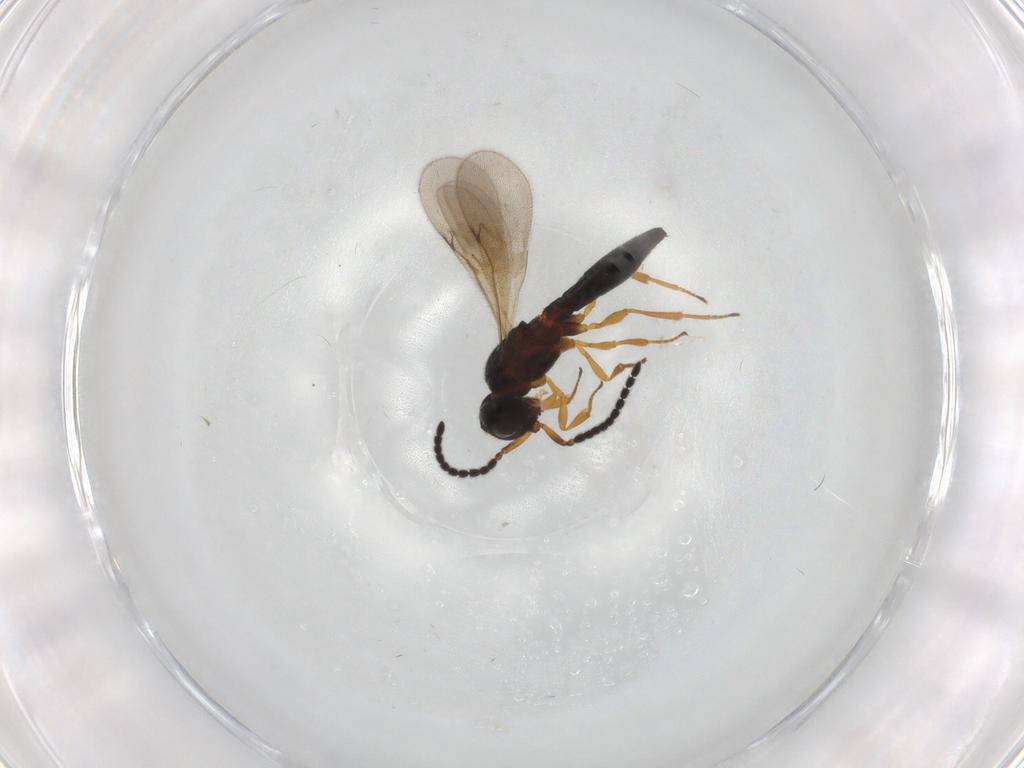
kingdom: Animalia
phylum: Arthropoda
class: Insecta
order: Hymenoptera
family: Scelionidae
